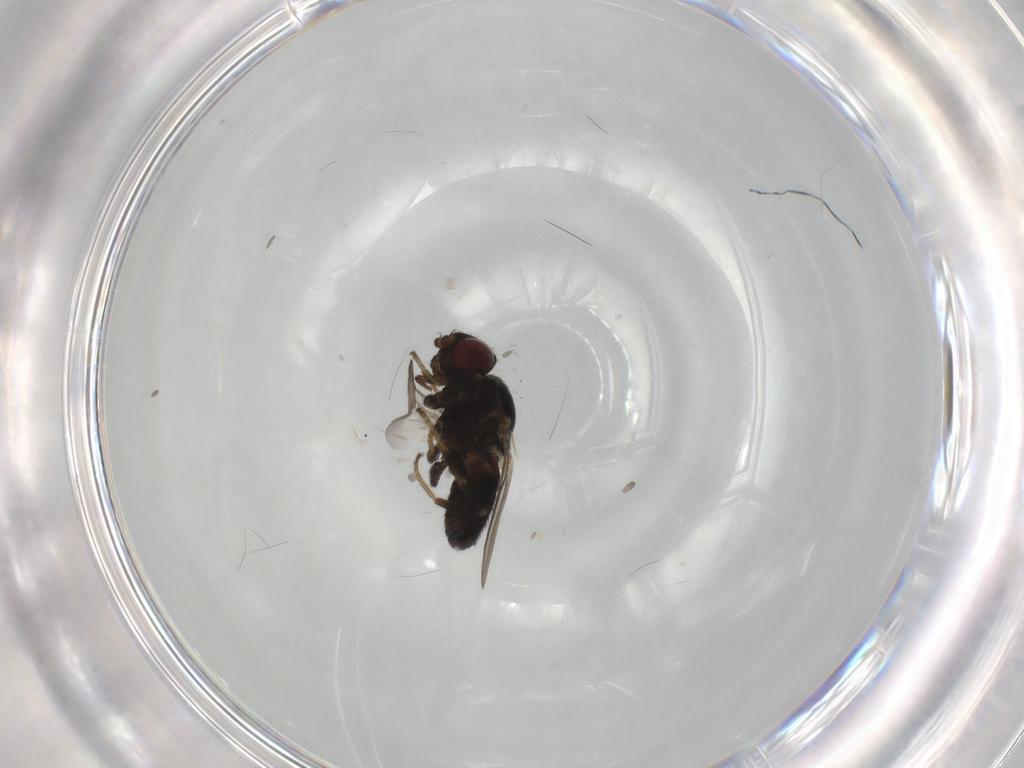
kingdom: Animalia
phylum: Arthropoda
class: Insecta
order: Diptera
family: Chloropidae
